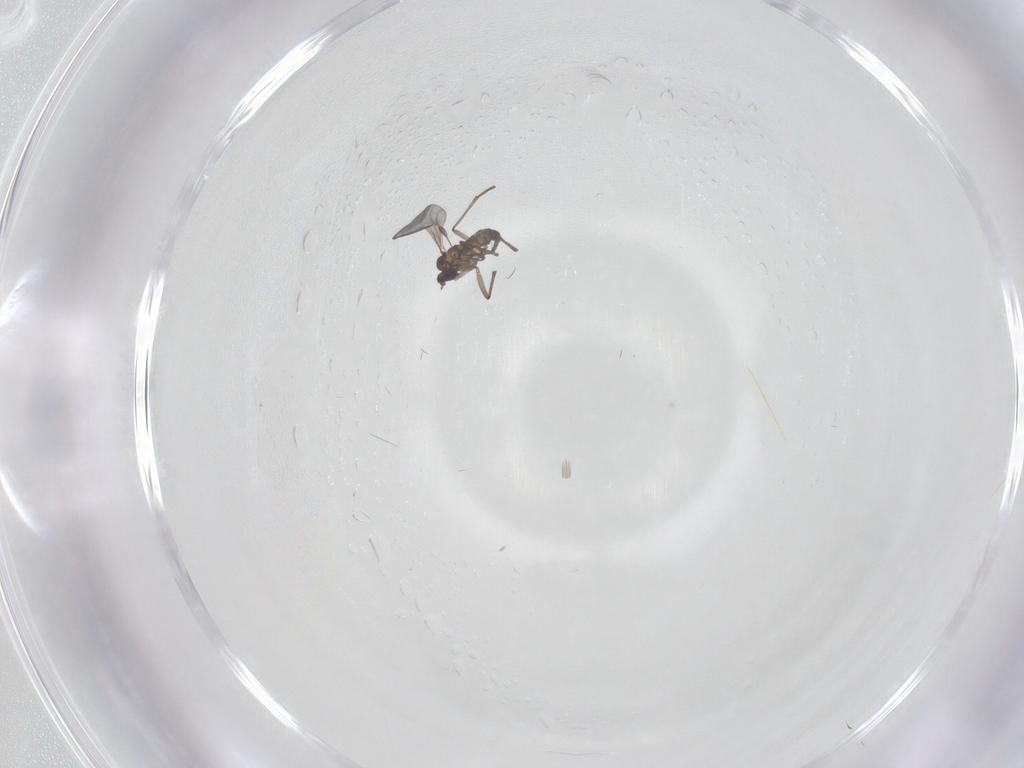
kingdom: Animalia
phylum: Arthropoda
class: Insecta
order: Diptera
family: Sciaridae
